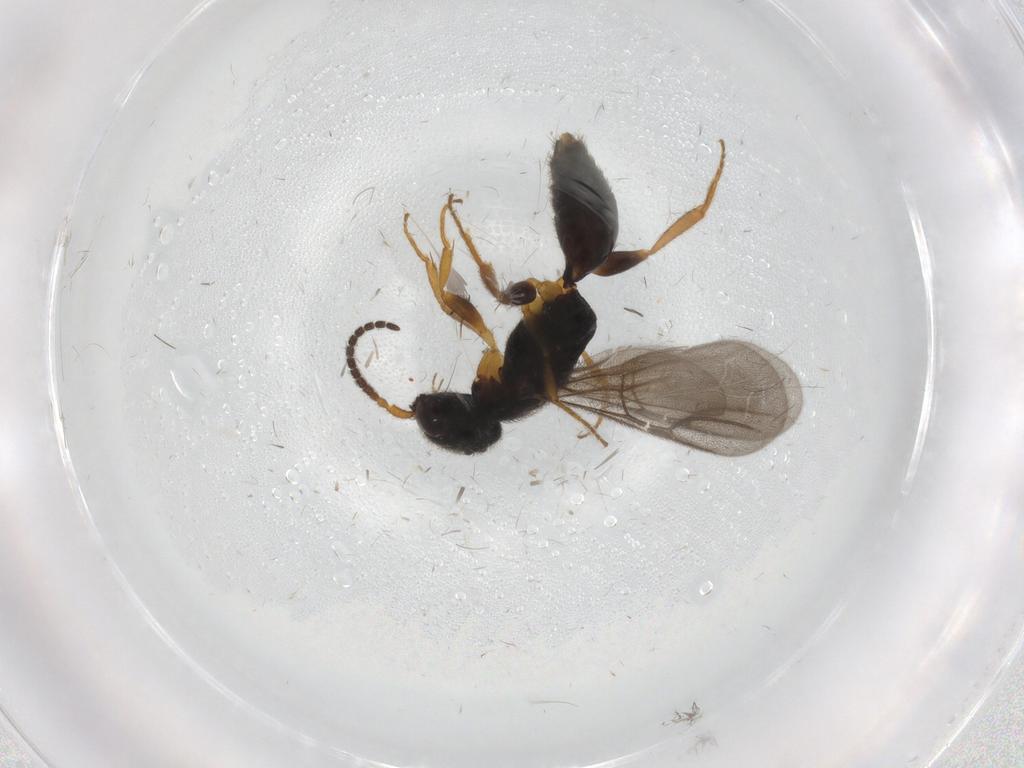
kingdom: Animalia
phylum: Arthropoda
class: Insecta
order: Hymenoptera
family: Bethylidae
